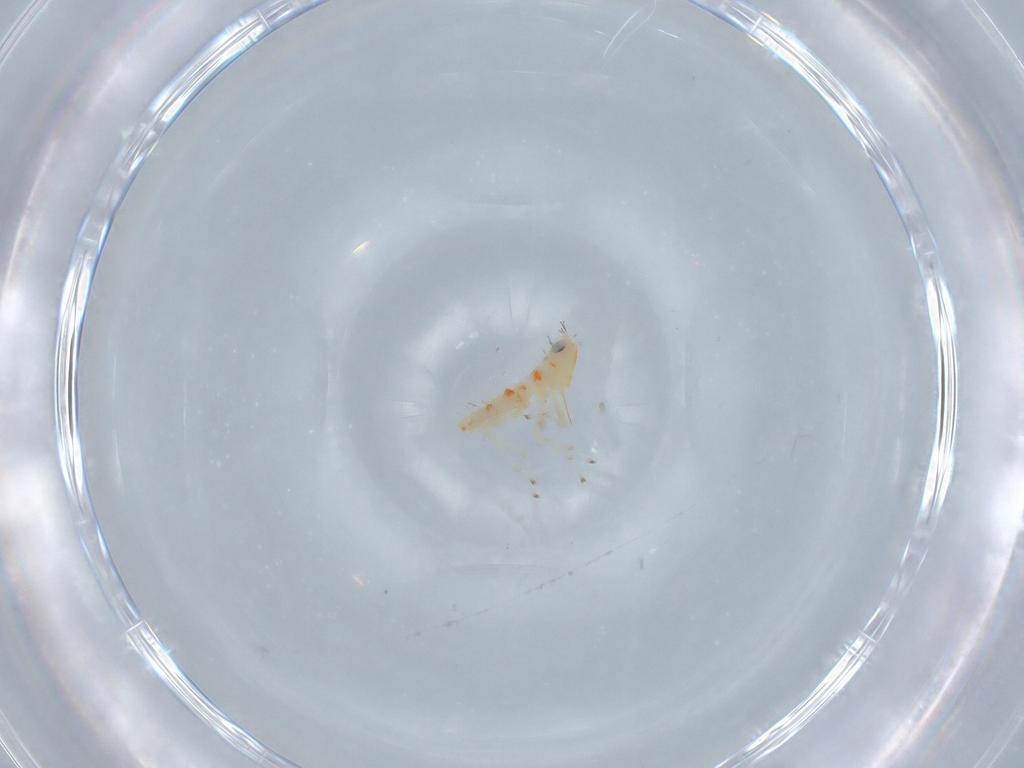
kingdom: Animalia
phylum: Arthropoda
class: Insecta
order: Hemiptera
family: Cicadellidae
